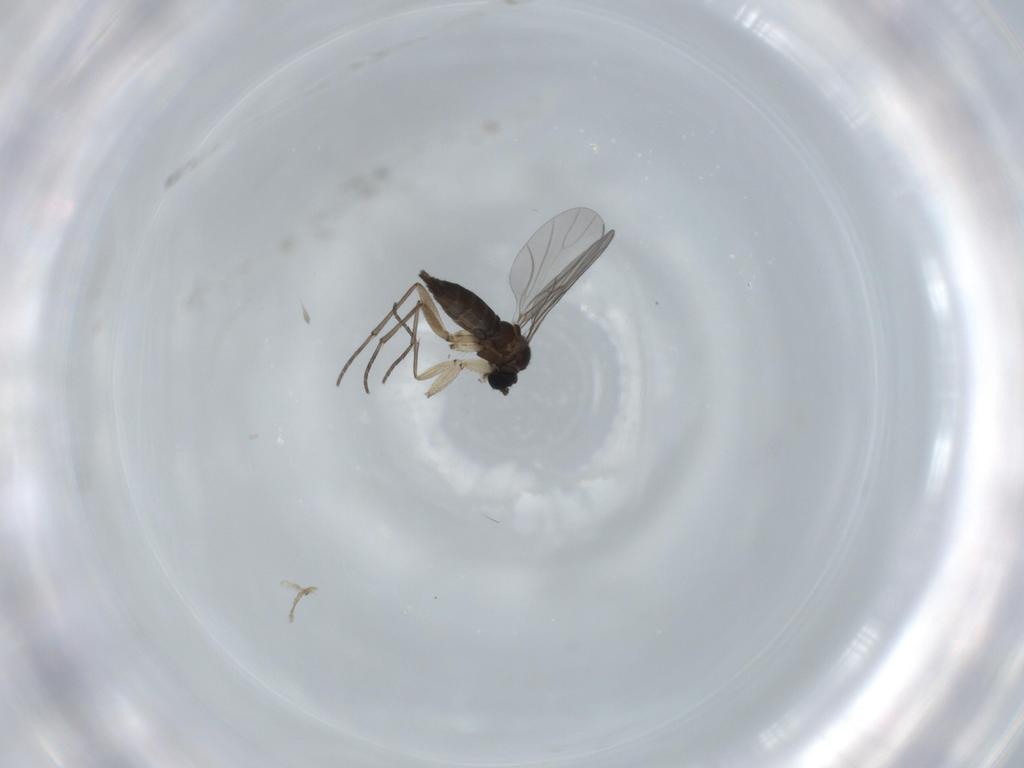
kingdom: Animalia
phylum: Arthropoda
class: Insecta
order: Diptera
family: Sciaridae
